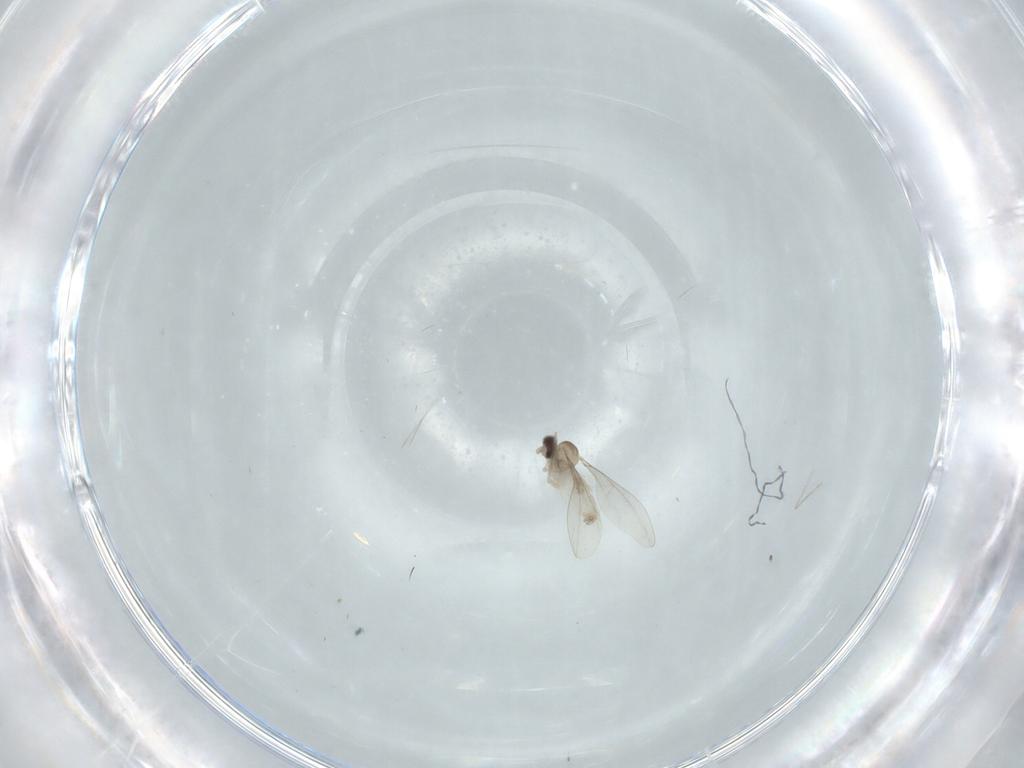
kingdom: Animalia
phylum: Arthropoda
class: Insecta
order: Diptera
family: Cecidomyiidae
